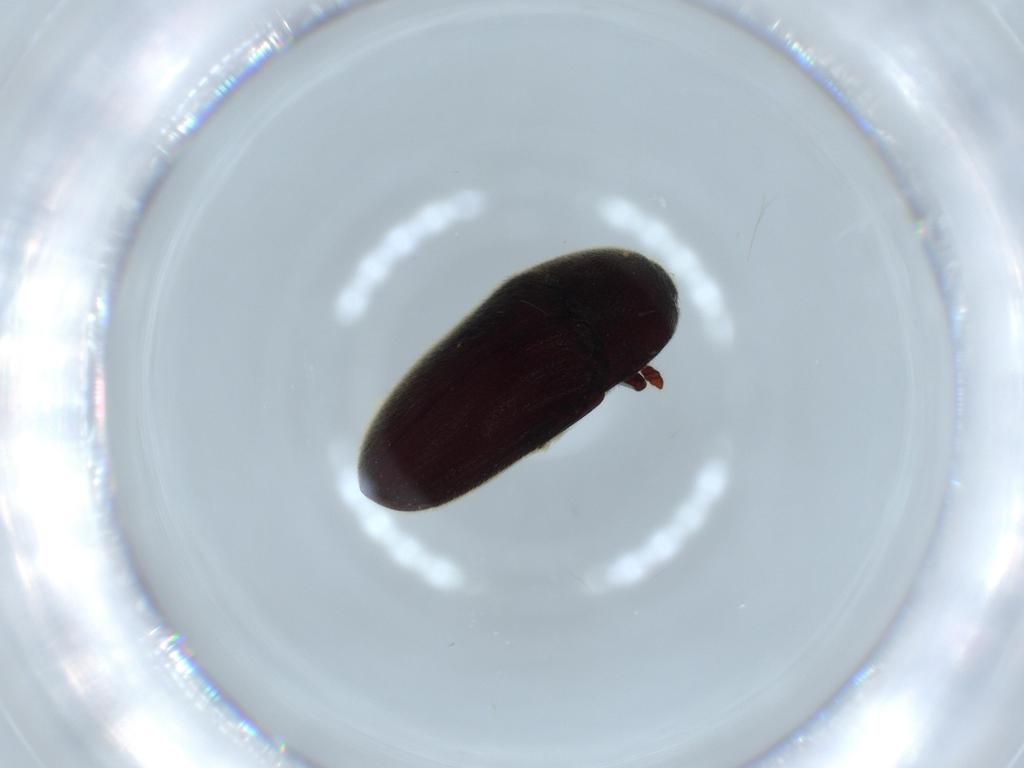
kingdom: Animalia
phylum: Arthropoda
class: Insecta
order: Coleoptera
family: Throscidae
